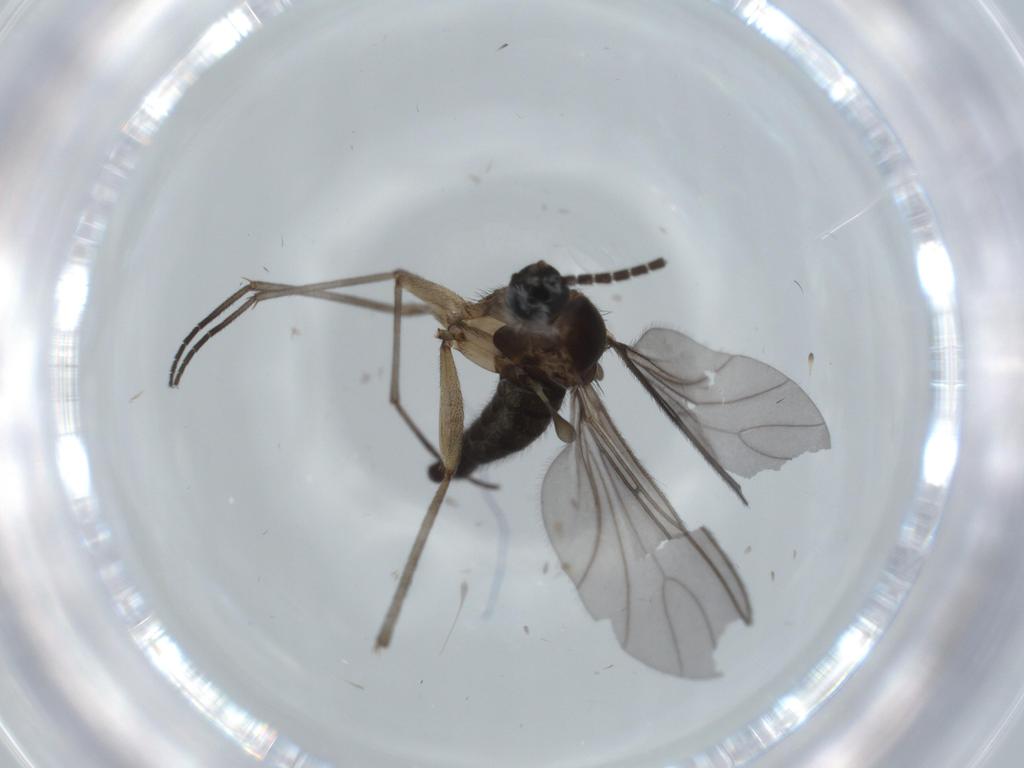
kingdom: Animalia
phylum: Arthropoda
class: Insecta
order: Diptera
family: Sciaridae
